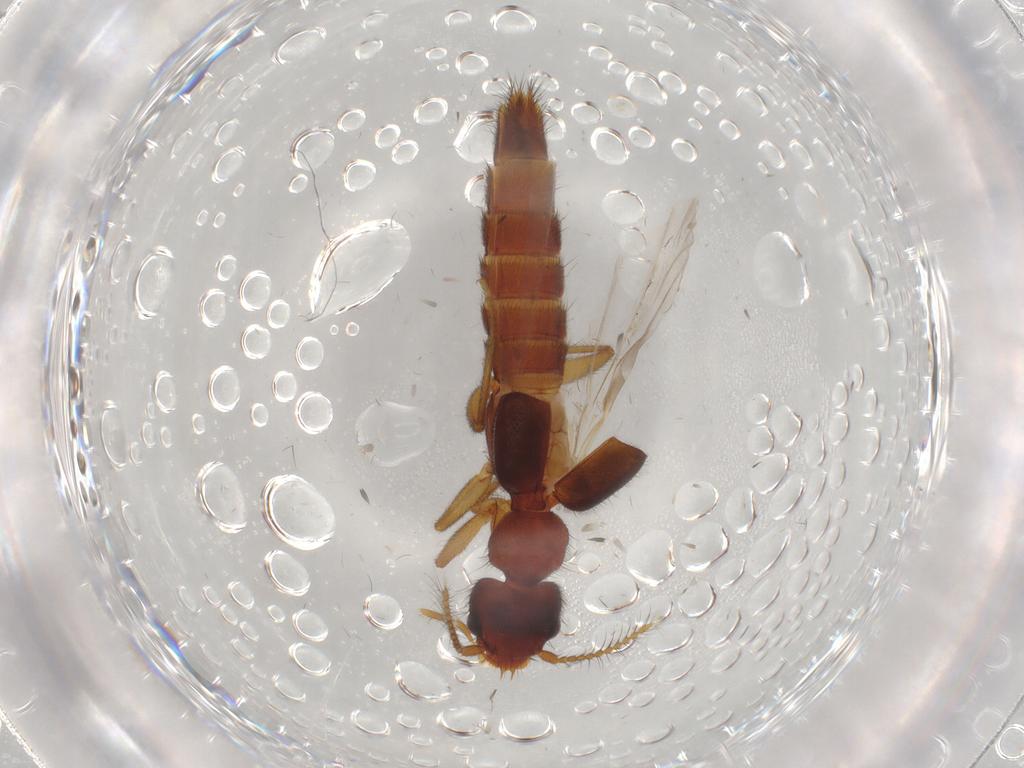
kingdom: Animalia
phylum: Arthropoda
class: Insecta
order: Coleoptera
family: Staphylinidae
